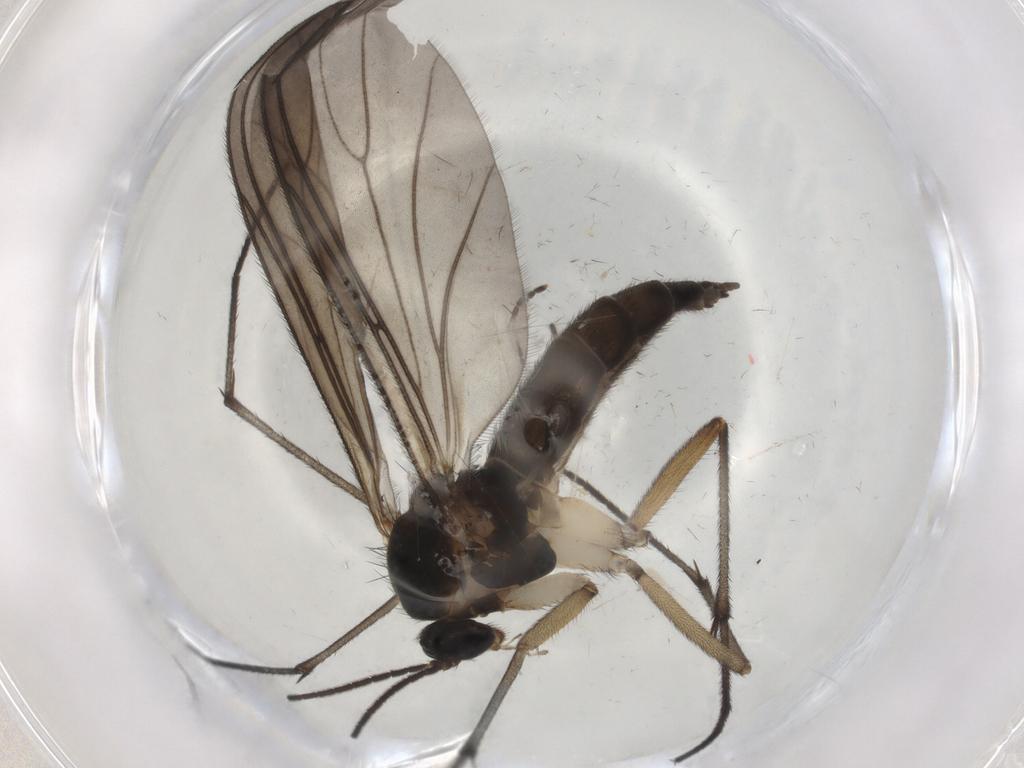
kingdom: Animalia
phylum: Arthropoda
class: Insecta
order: Diptera
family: Sciaridae
